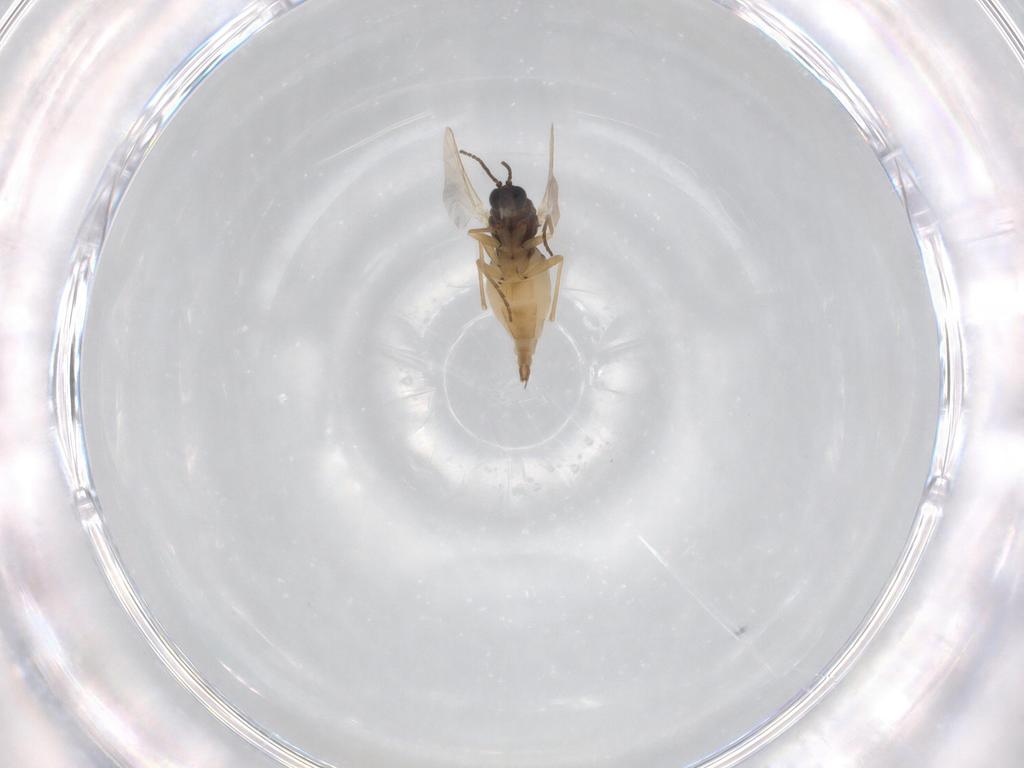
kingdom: Animalia
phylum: Arthropoda
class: Insecta
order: Diptera
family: Sciaridae
